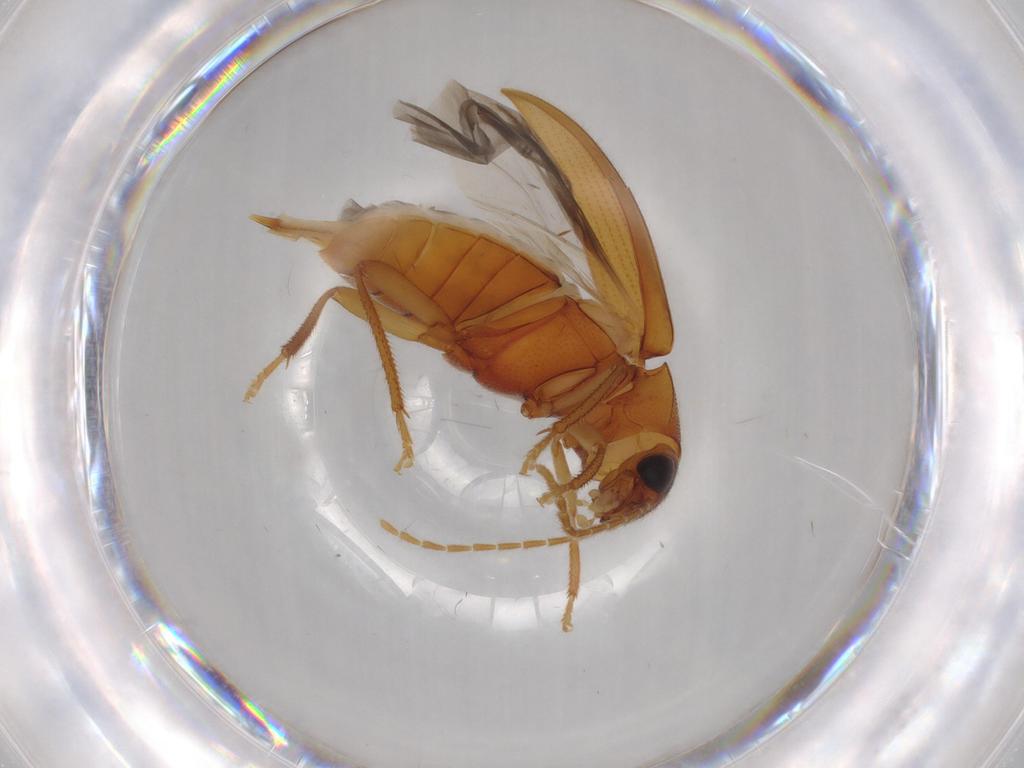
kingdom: Animalia
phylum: Arthropoda
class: Insecta
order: Coleoptera
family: Ptilodactylidae
